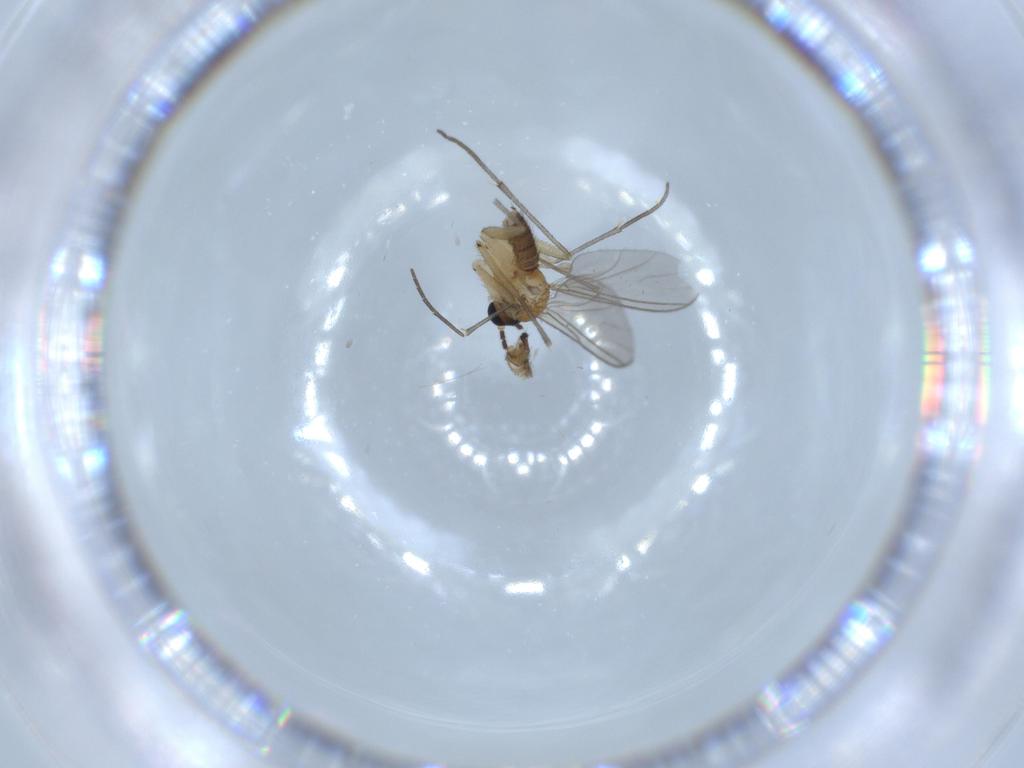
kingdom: Animalia
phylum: Arthropoda
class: Insecta
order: Diptera
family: Sciaridae
